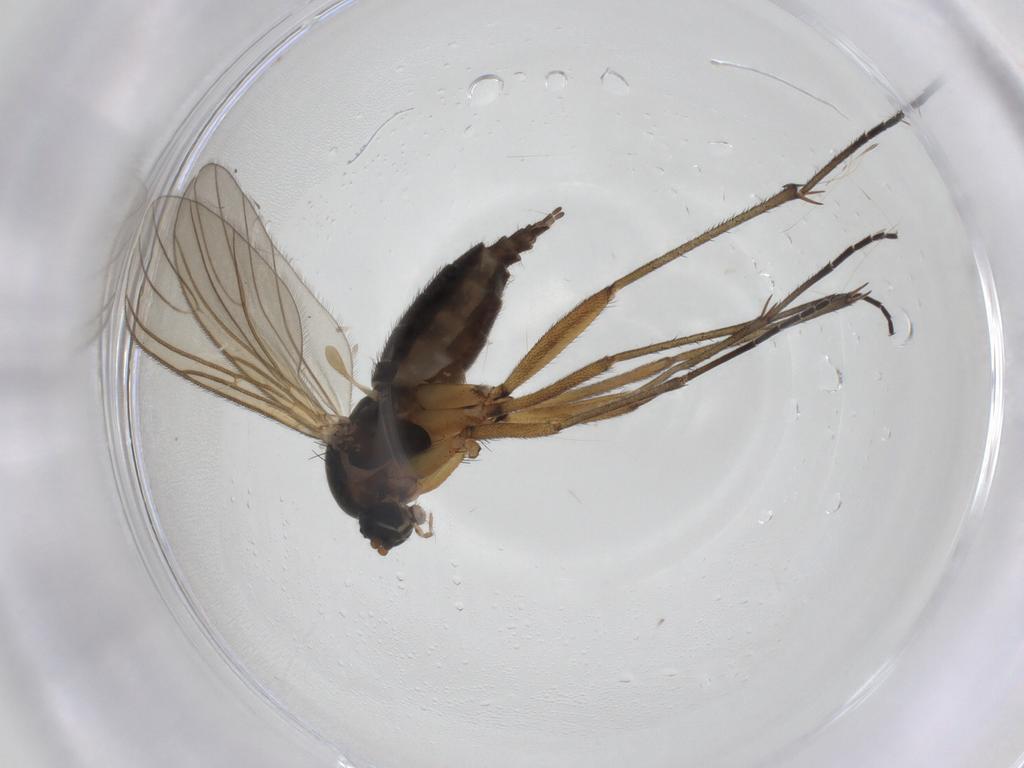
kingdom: Animalia
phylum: Arthropoda
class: Insecta
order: Diptera
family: Sciaridae
